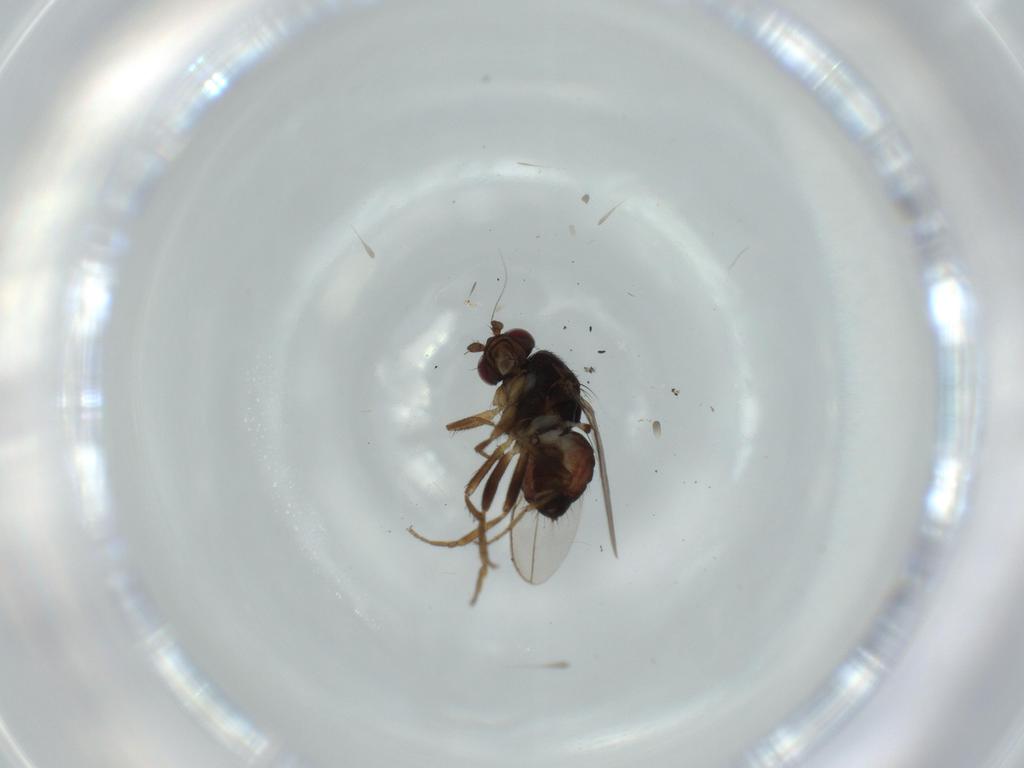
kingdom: Animalia
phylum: Arthropoda
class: Insecta
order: Diptera
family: Sphaeroceridae
